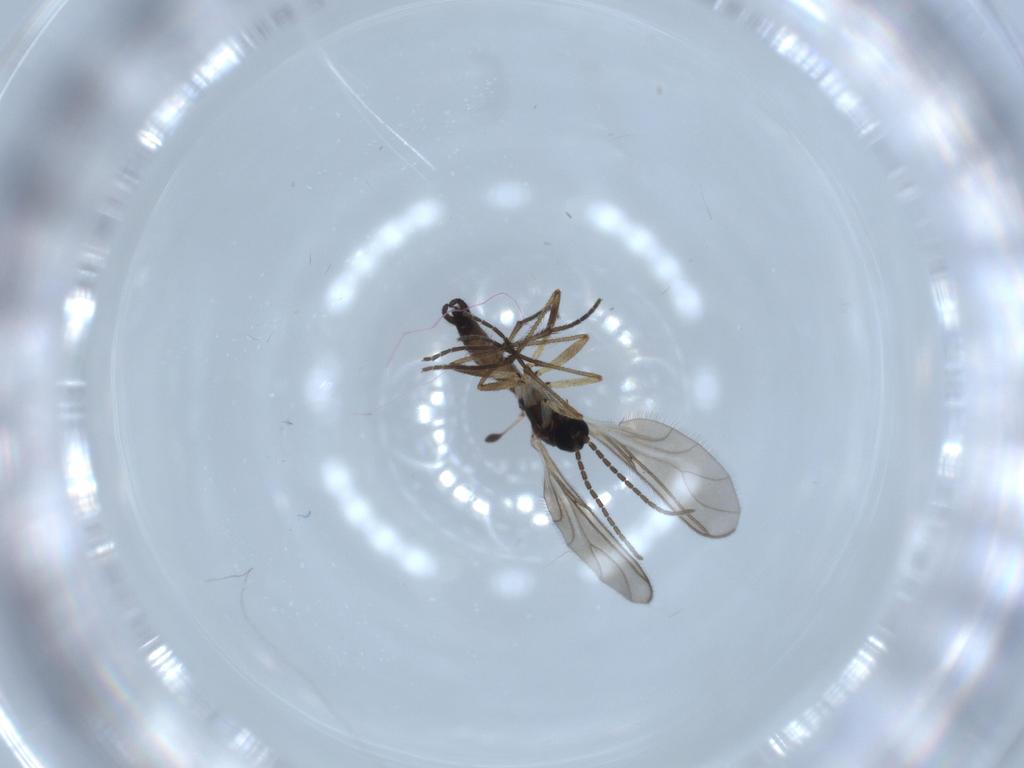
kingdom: Animalia
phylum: Arthropoda
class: Insecta
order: Diptera
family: Sciaridae
